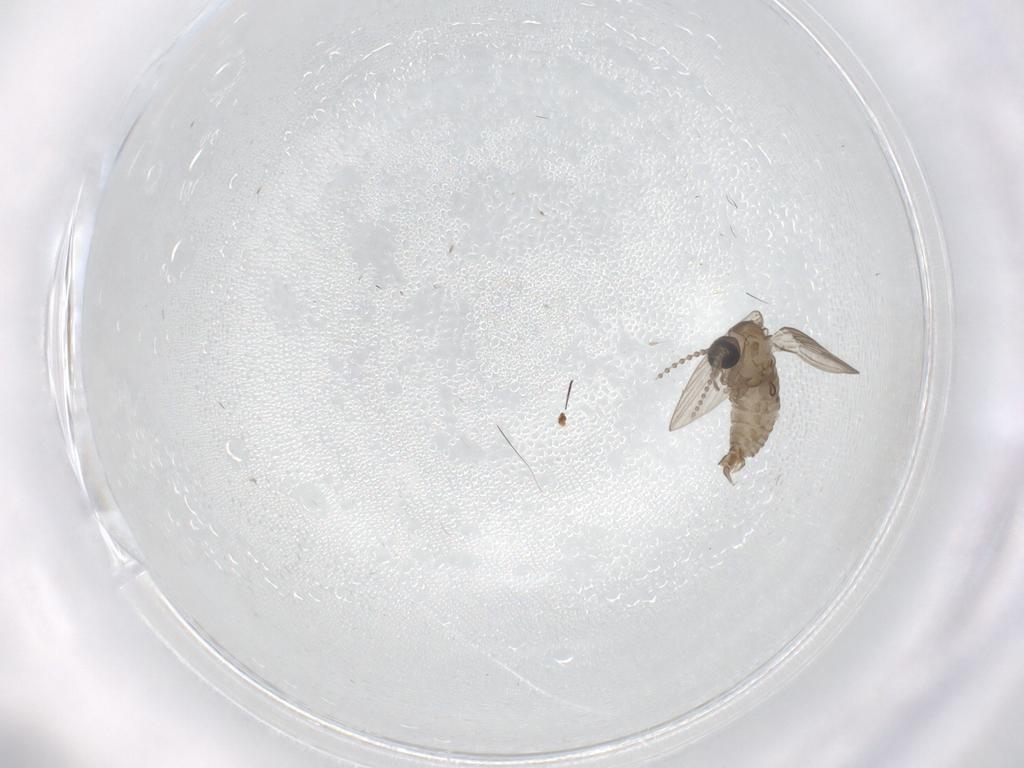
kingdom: Animalia
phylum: Arthropoda
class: Insecta
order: Diptera
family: Psychodidae
